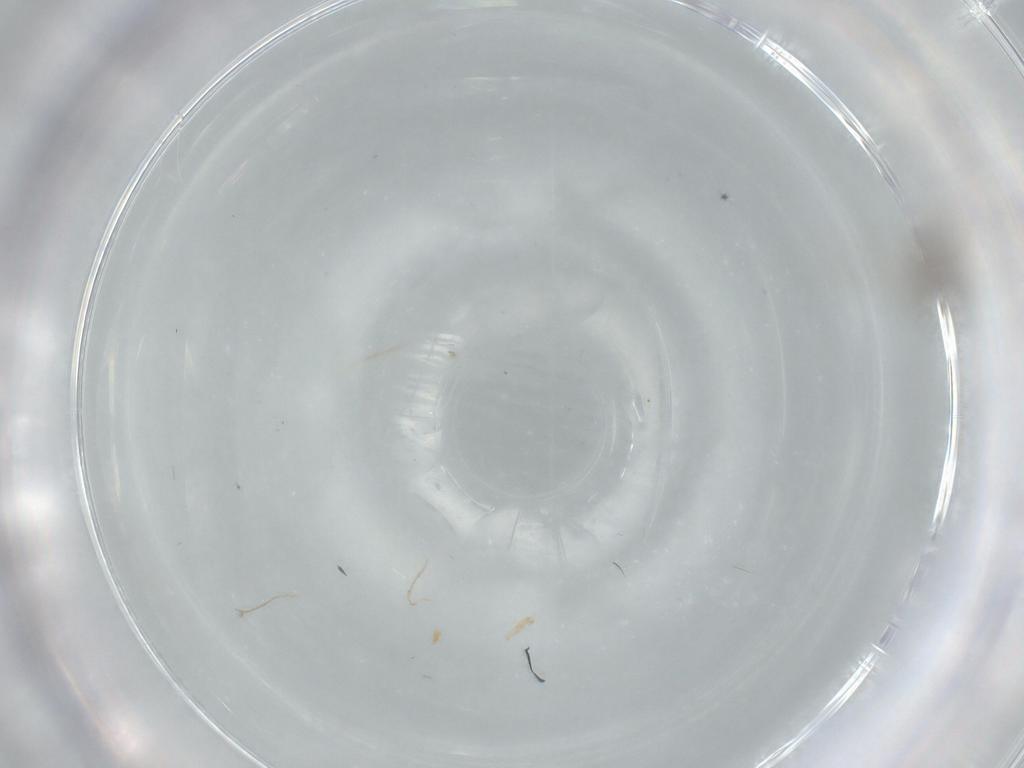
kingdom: Animalia
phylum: Arthropoda
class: Insecta
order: Diptera
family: Cecidomyiidae
